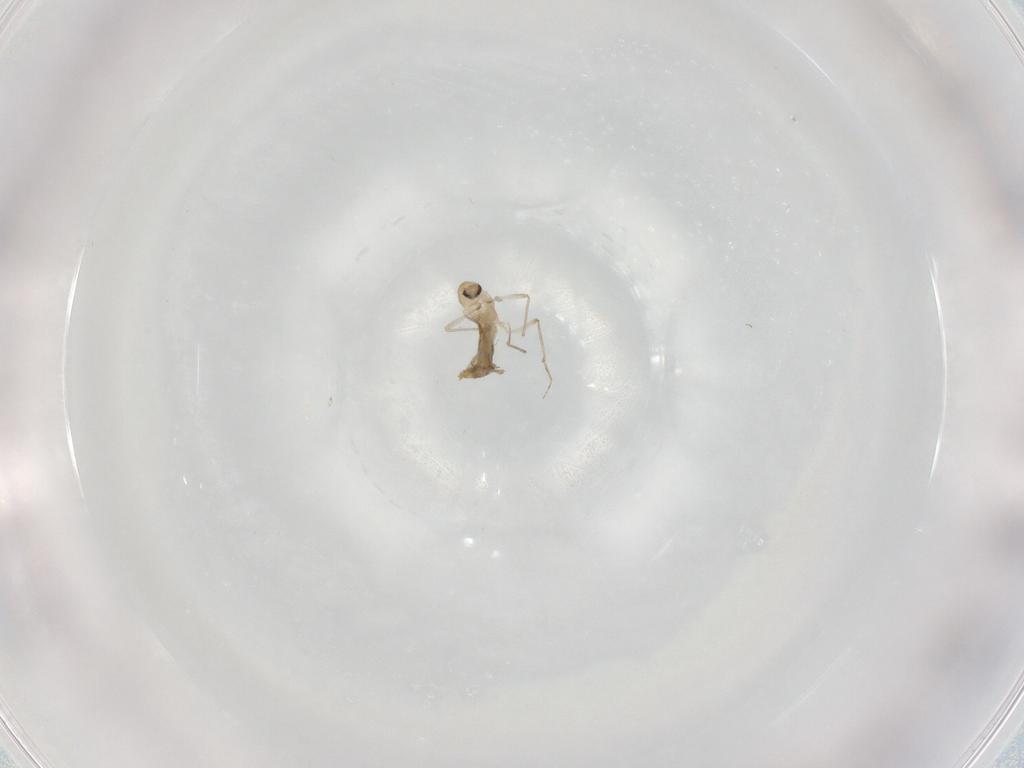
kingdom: Animalia
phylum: Arthropoda
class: Insecta
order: Diptera
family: Chironomidae
